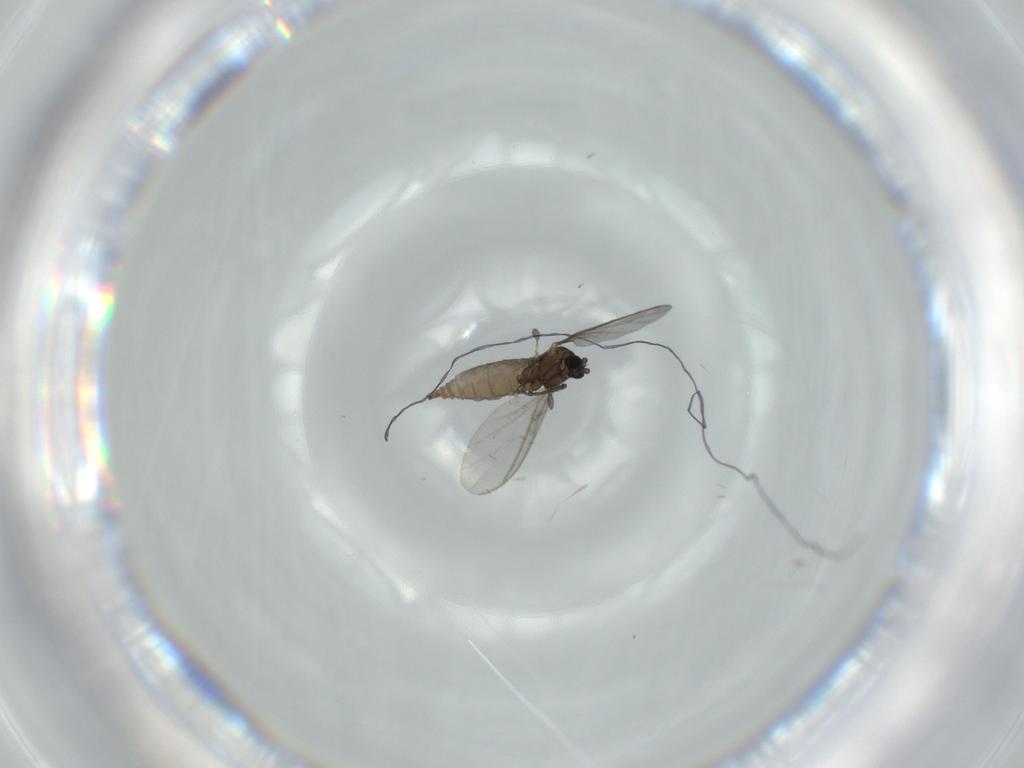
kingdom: Animalia
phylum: Arthropoda
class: Insecta
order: Diptera
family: Sciaridae
